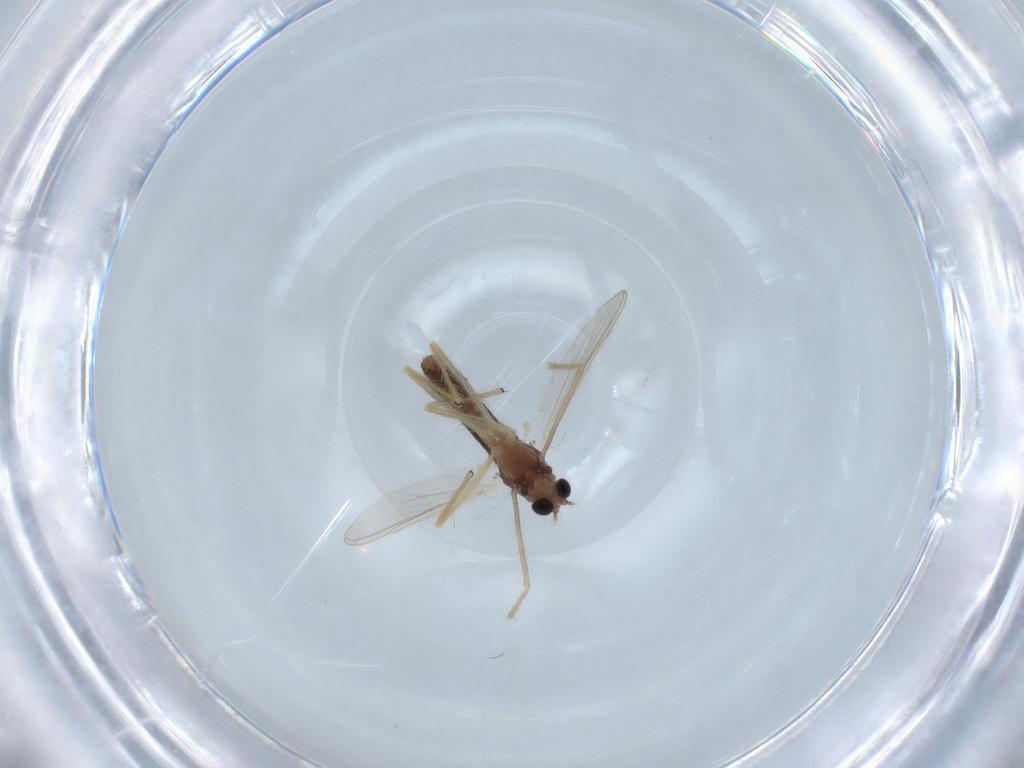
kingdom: Animalia
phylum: Arthropoda
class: Insecta
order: Diptera
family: Chironomidae
